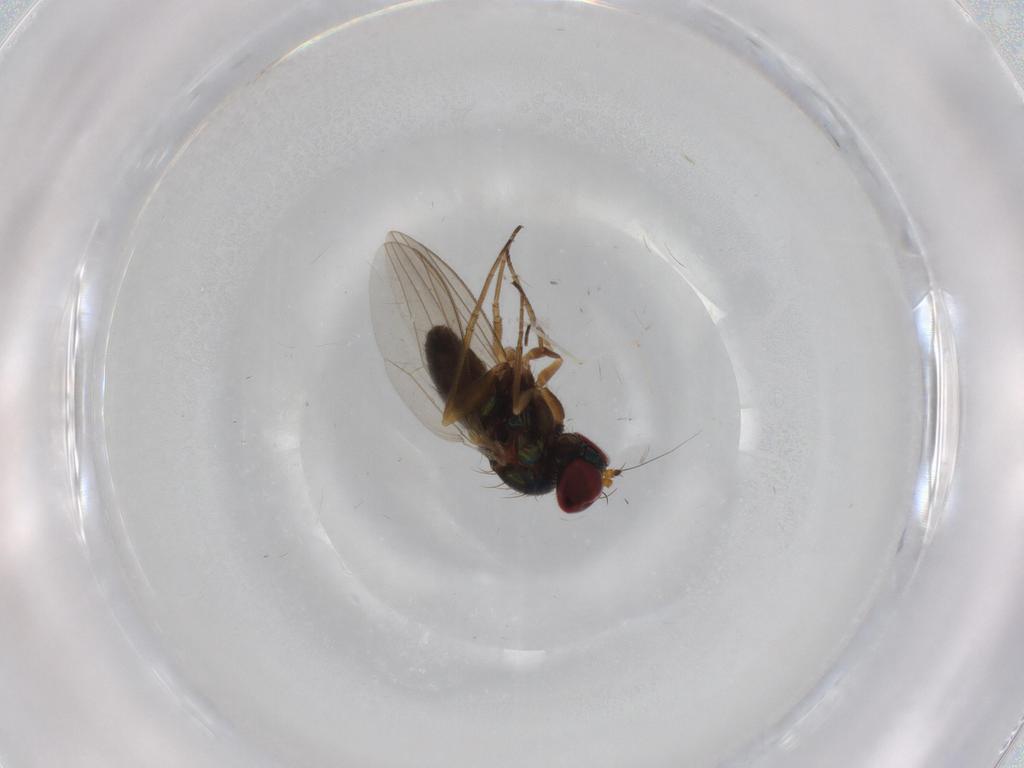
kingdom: Animalia
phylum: Arthropoda
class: Insecta
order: Diptera
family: Cecidomyiidae
